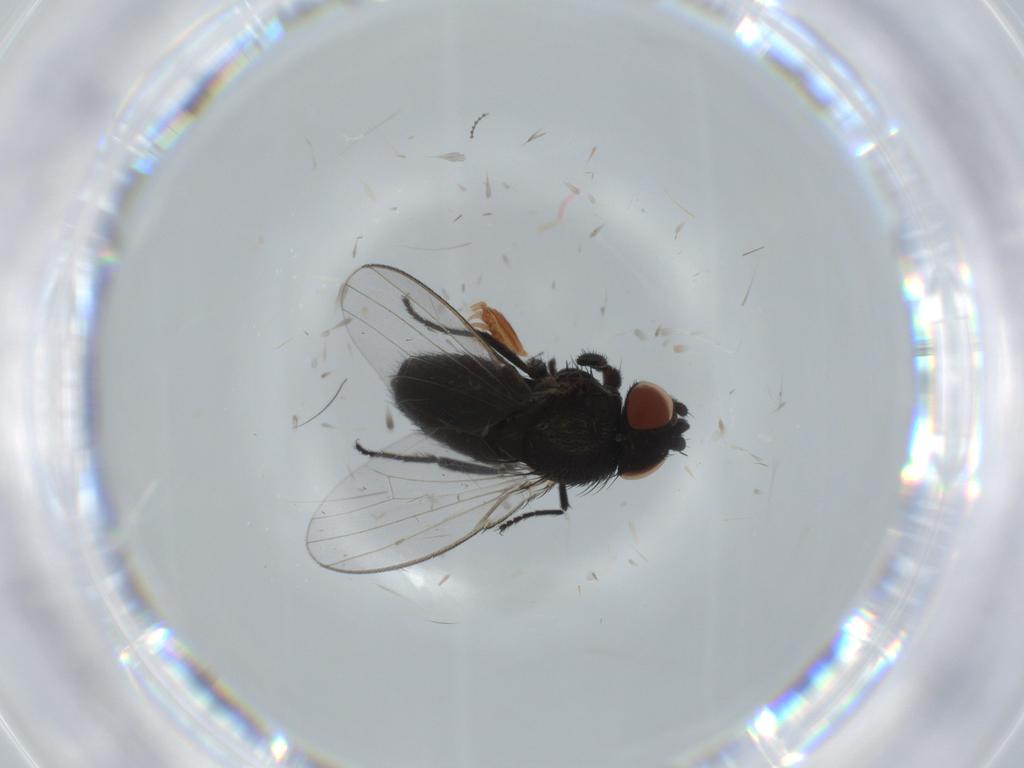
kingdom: Animalia
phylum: Arthropoda
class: Insecta
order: Diptera
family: Milichiidae
